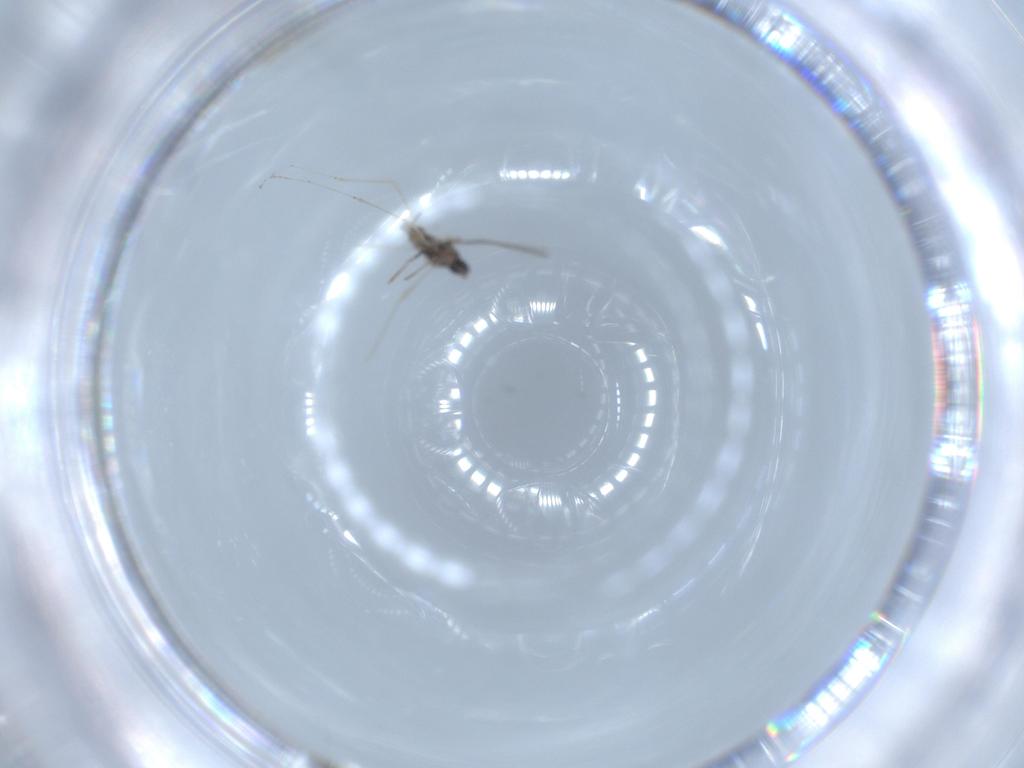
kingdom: Animalia
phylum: Arthropoda
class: Insecta
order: Diptera
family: Cecidomyiidae
